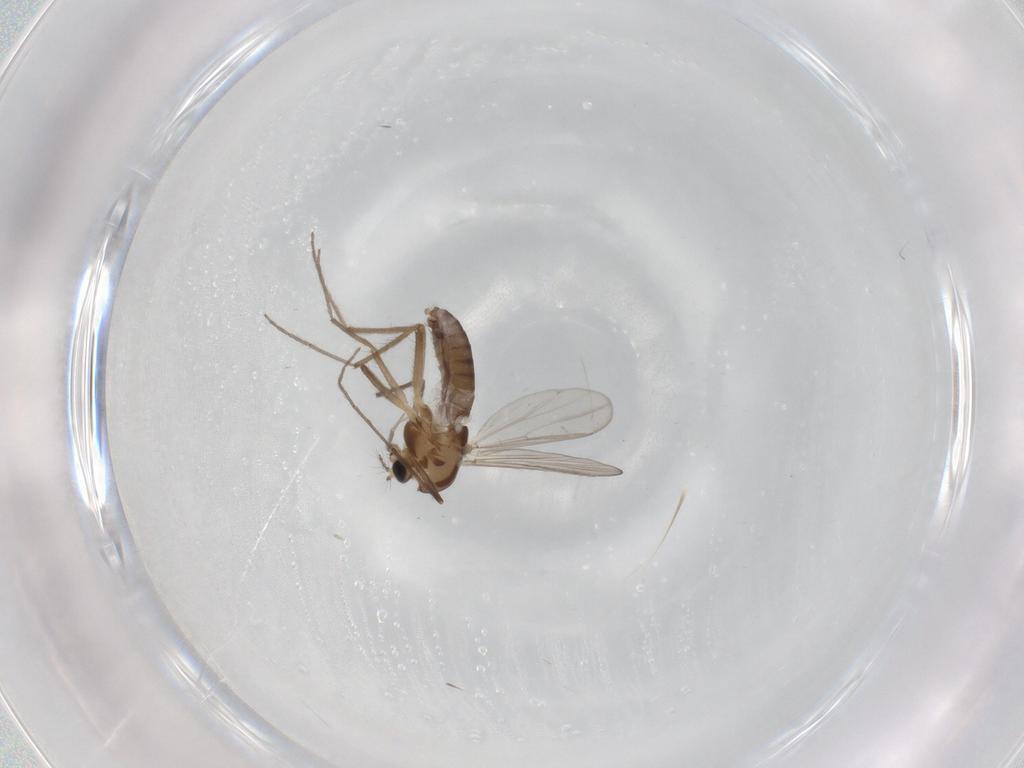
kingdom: Animalia
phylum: Arthropoda
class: Insecta
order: Diptera
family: Chironomidae
